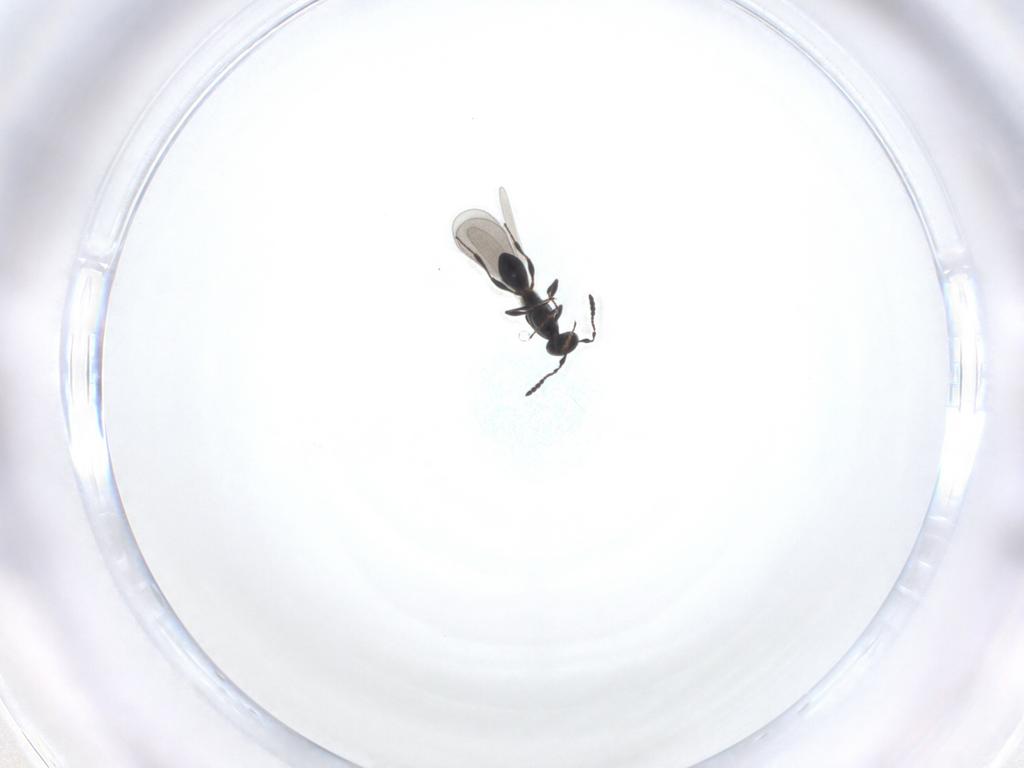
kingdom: Animalia
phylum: Arthropoda
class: Insecta
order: Hymenoptera
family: Platygastridae
